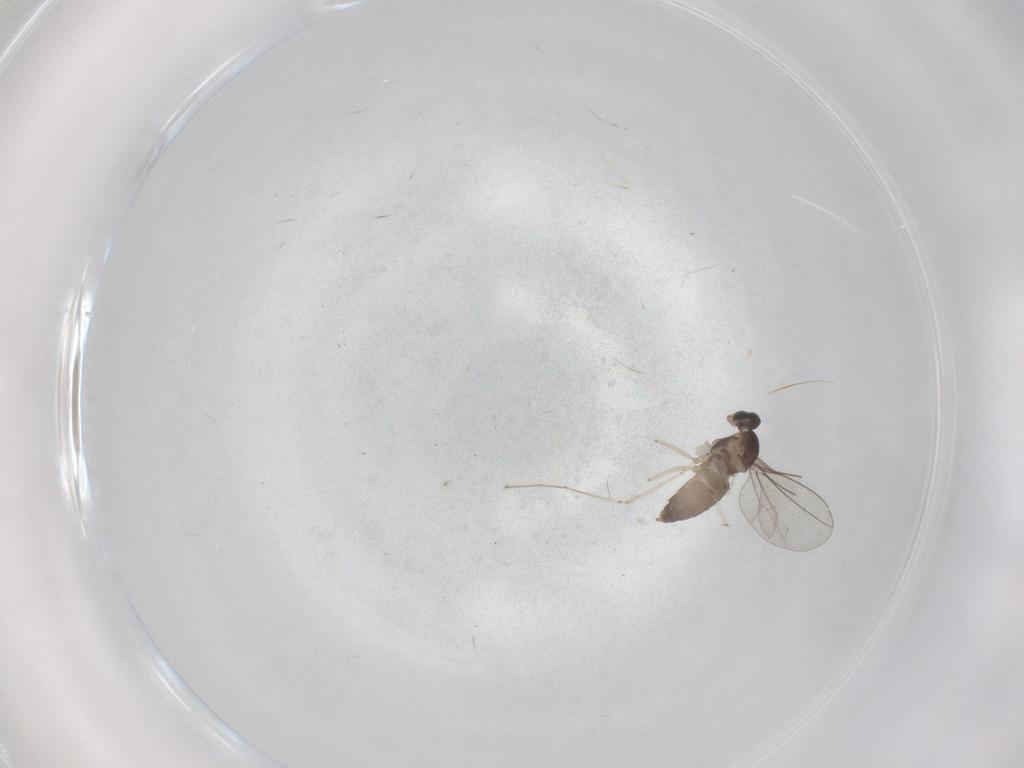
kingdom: Animalia
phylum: Arthropoda
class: Insecta
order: Diptera
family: Cecidomyiidae
